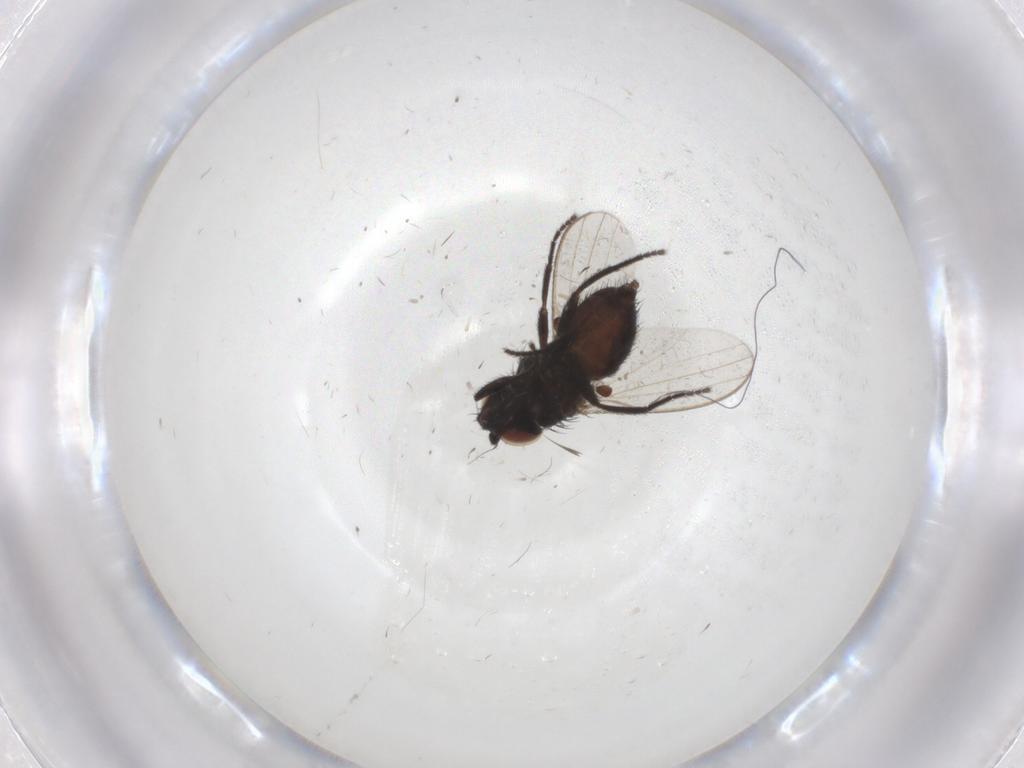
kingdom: Animalia
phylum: Arthropoda
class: Insecta
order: Diptera
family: Milichiidae
